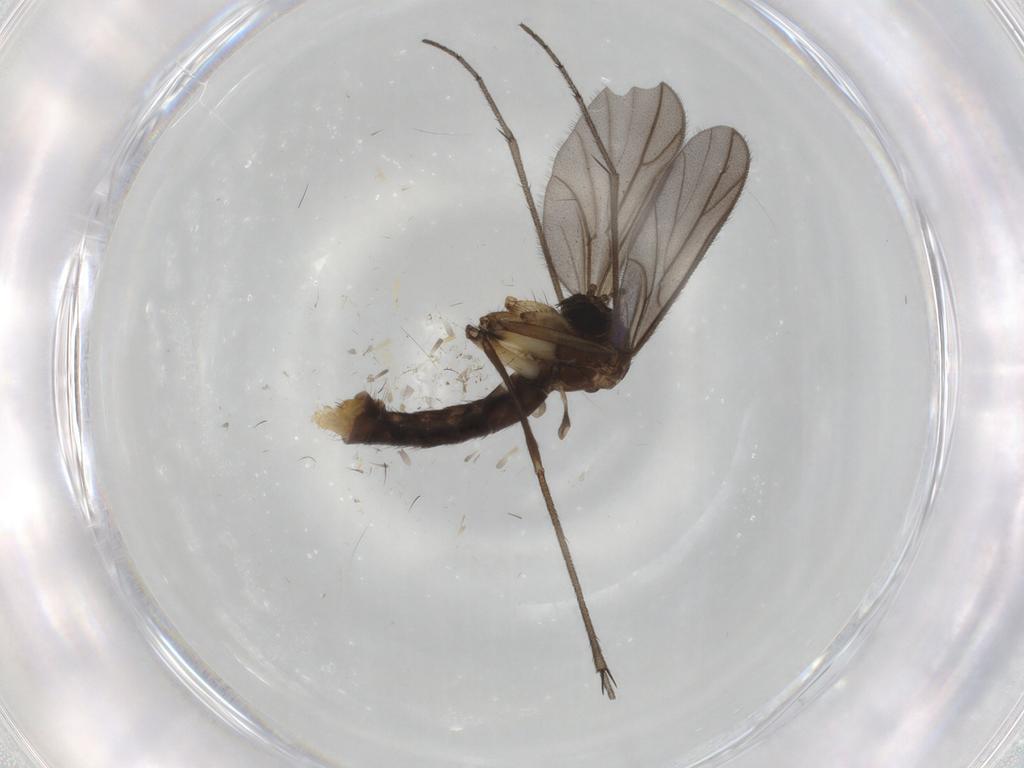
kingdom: Animalia
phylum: Arthropoda
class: Insecta
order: Diptera
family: Ditomyiidae
